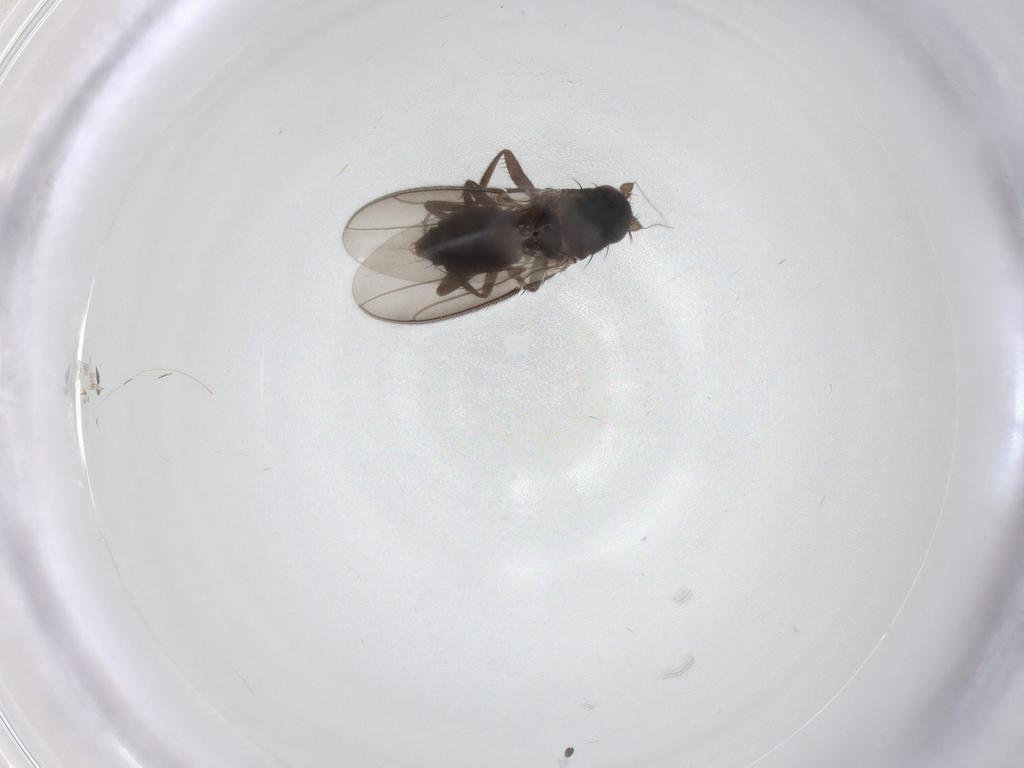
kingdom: Animalia
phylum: Arthropoda
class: Insecta
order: Diptera
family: Sphaeroceridae
